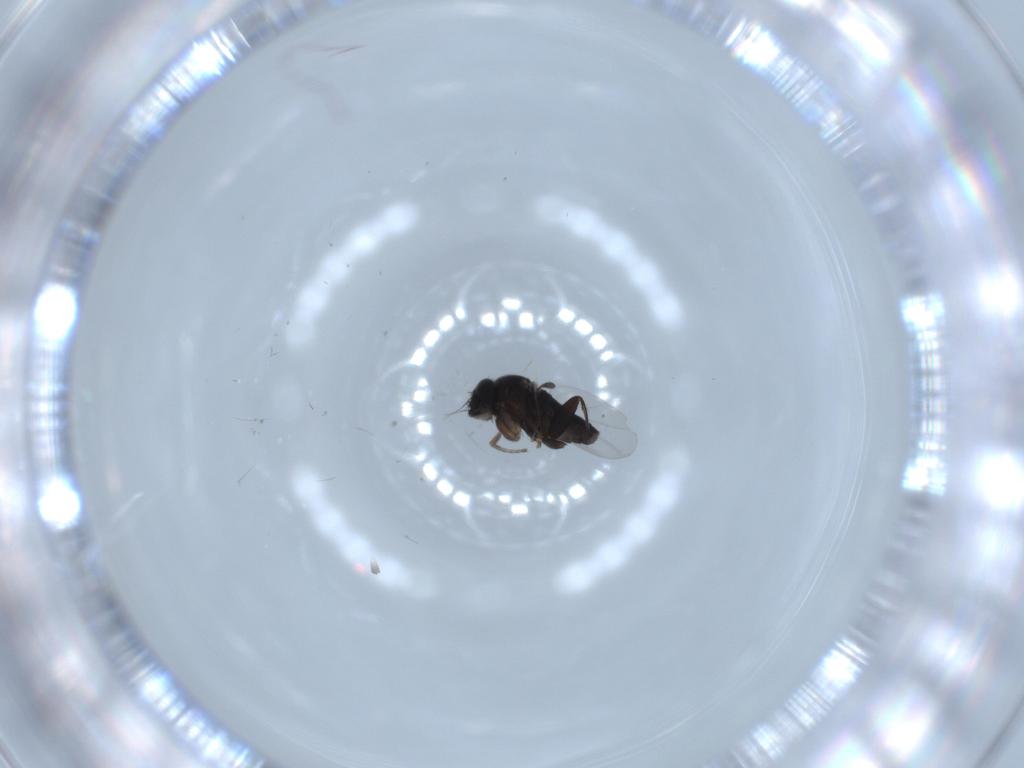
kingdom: Animalia
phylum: Arthropoda
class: Insecta
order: Diptera
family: Phoridae
